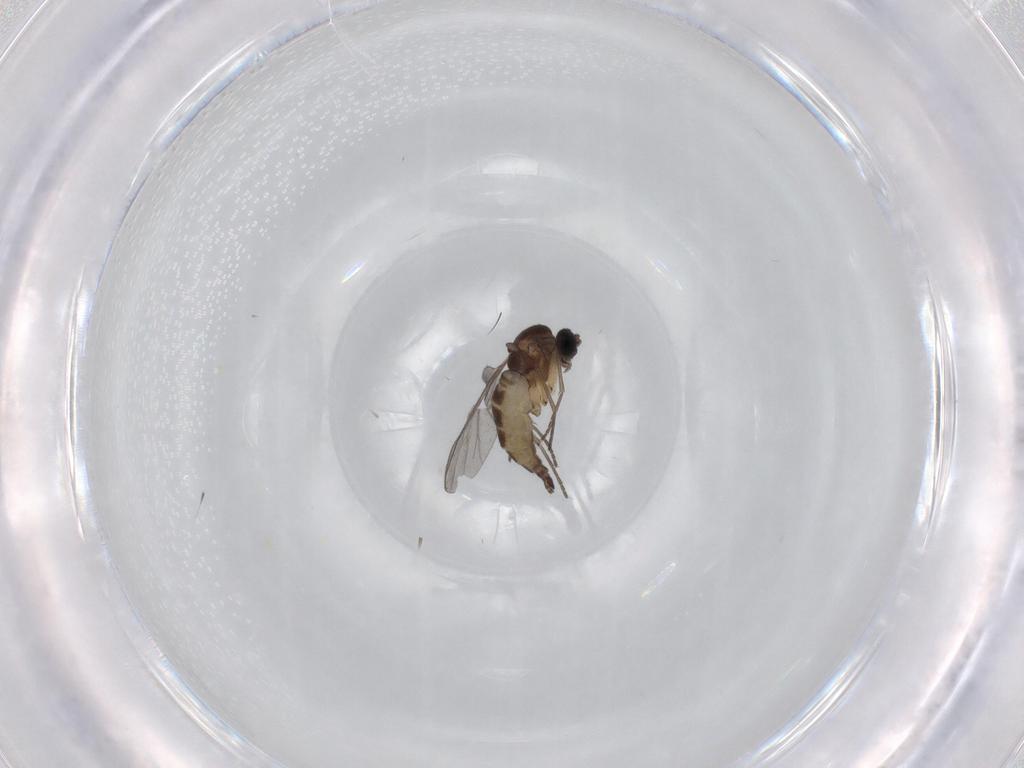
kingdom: Animalia
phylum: Arthropoda
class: Insecta
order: Diptera
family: Sciaridae
